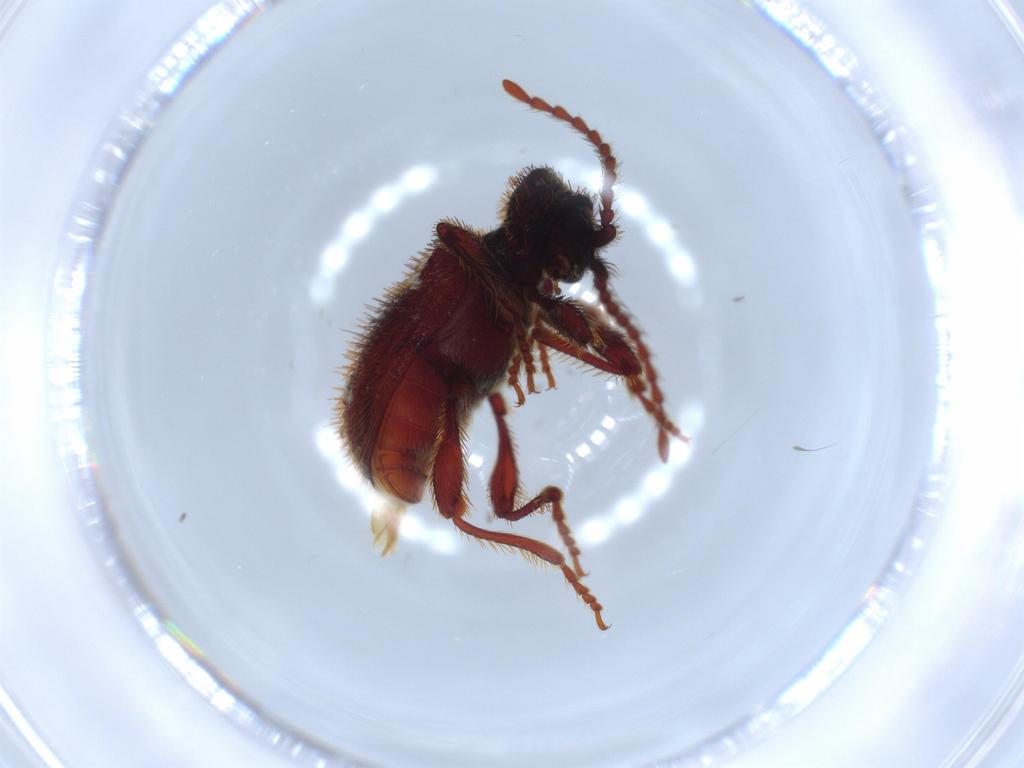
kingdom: Animalia
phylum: Arthropoda
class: Insecta
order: Coleoptera
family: Ptinidae
